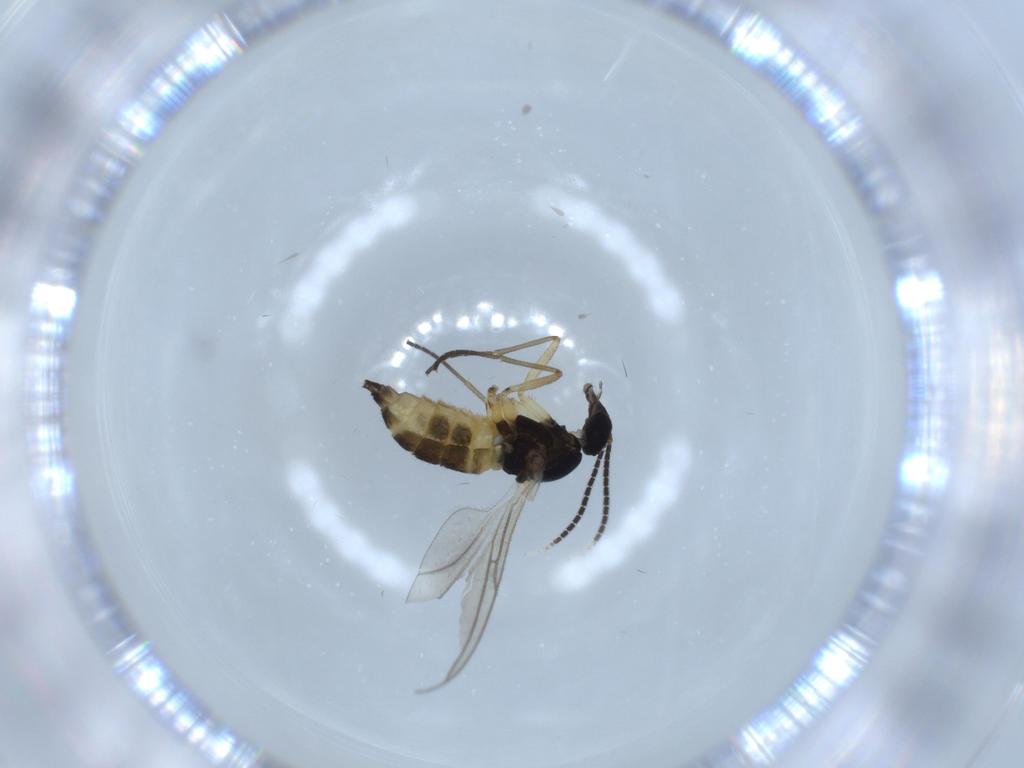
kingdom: Animalia
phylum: Arthropoda
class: Insecta
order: Diptera
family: Sciaridae
